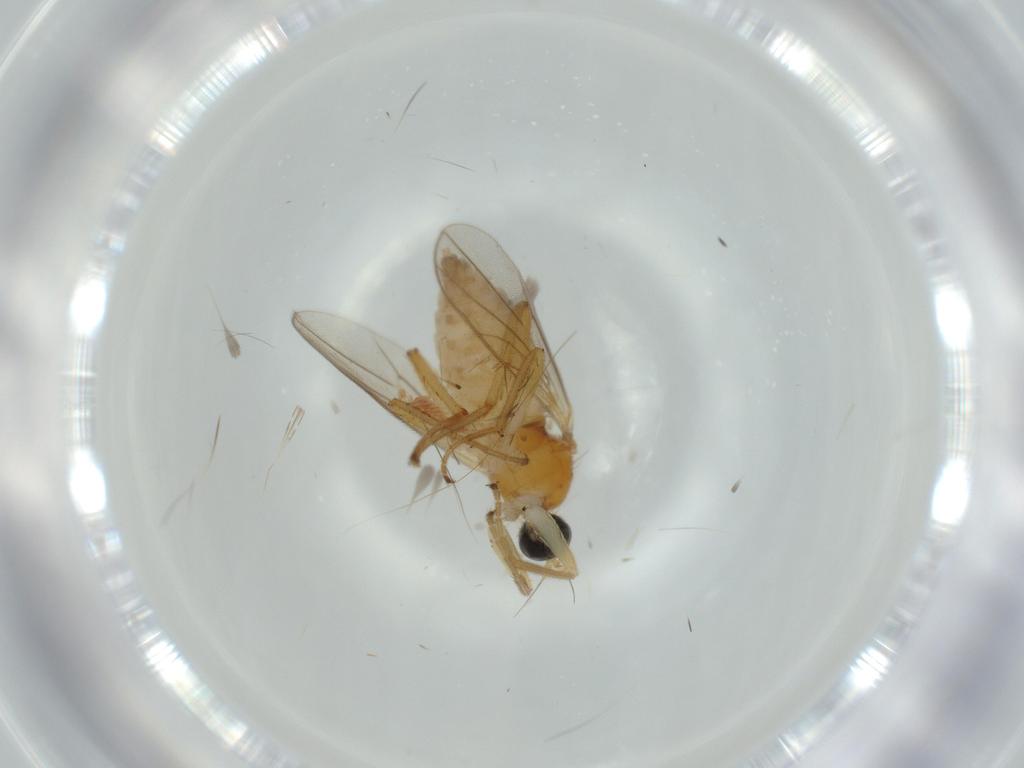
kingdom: Animalia
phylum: Arthropoda
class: Insecta
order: Diptera
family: Hybotidae
